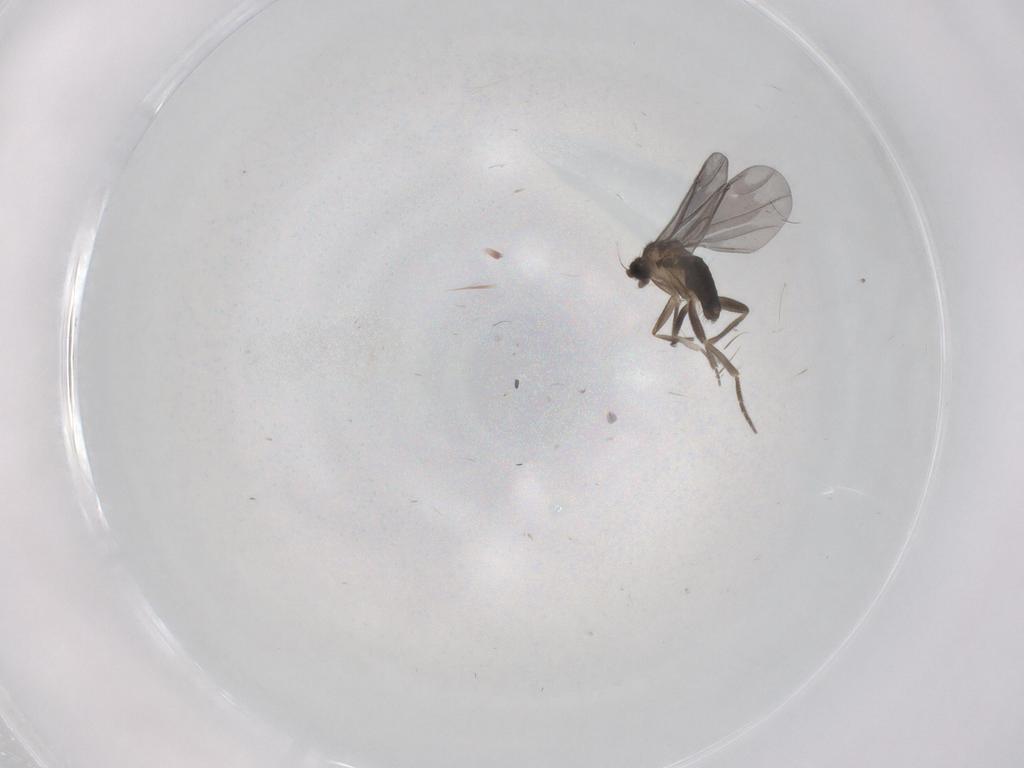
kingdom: Animalia
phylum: Arthropoda
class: Insecta
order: Diptera
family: Phoridae
